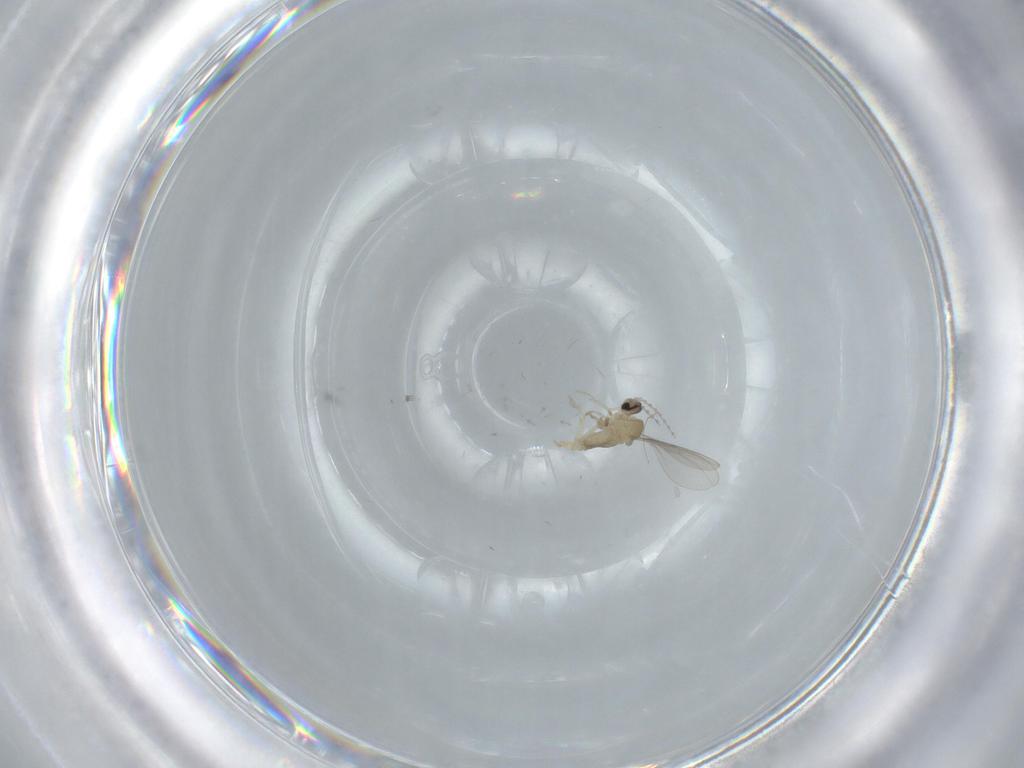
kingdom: Animalia
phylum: Arthropoda
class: Insecta
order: Diptera
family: Cecidomyiidae
